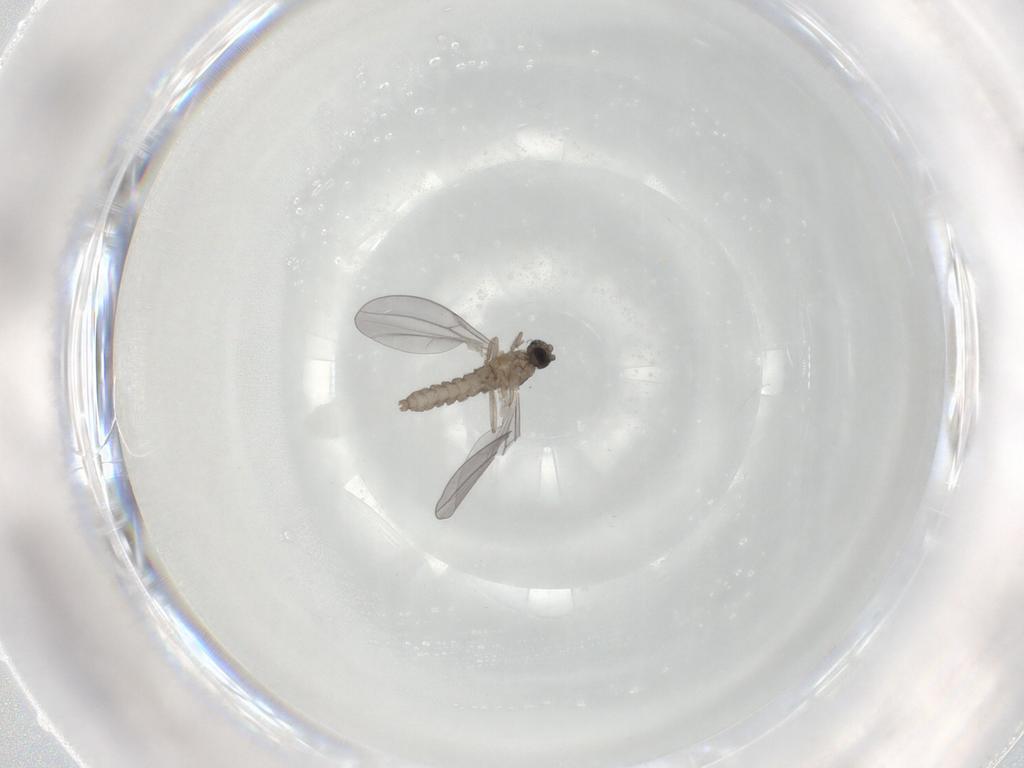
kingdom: Animalia
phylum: Arthropoda
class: Insecta
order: Diptera
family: Cecidomyiidae
